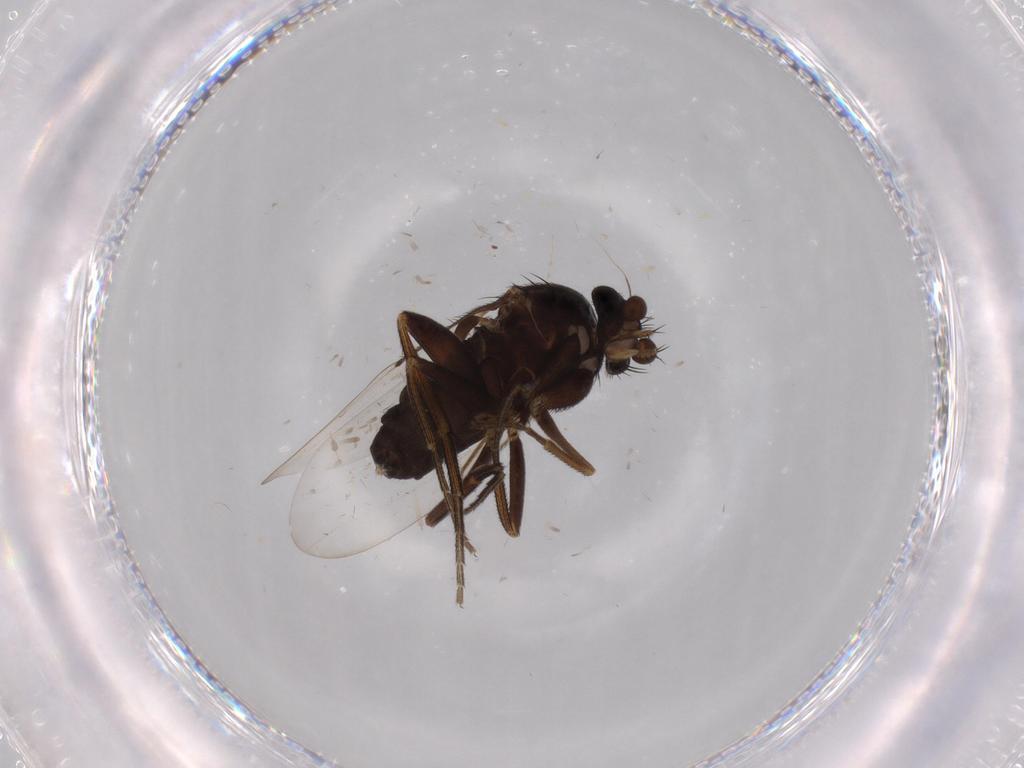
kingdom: Animalia
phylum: Arthropoda
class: Insecta
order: Diptera
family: Phoridae
